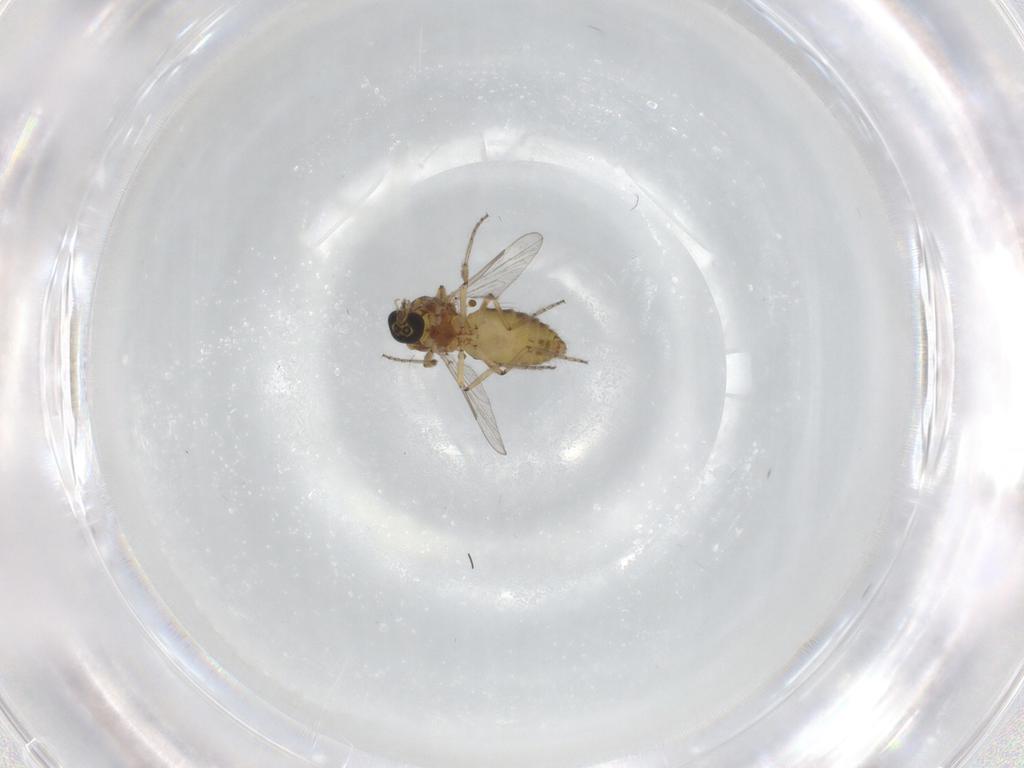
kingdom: Animalia
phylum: Arthropoda
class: Insecta
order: Diptera
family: Ceratopogonidae
